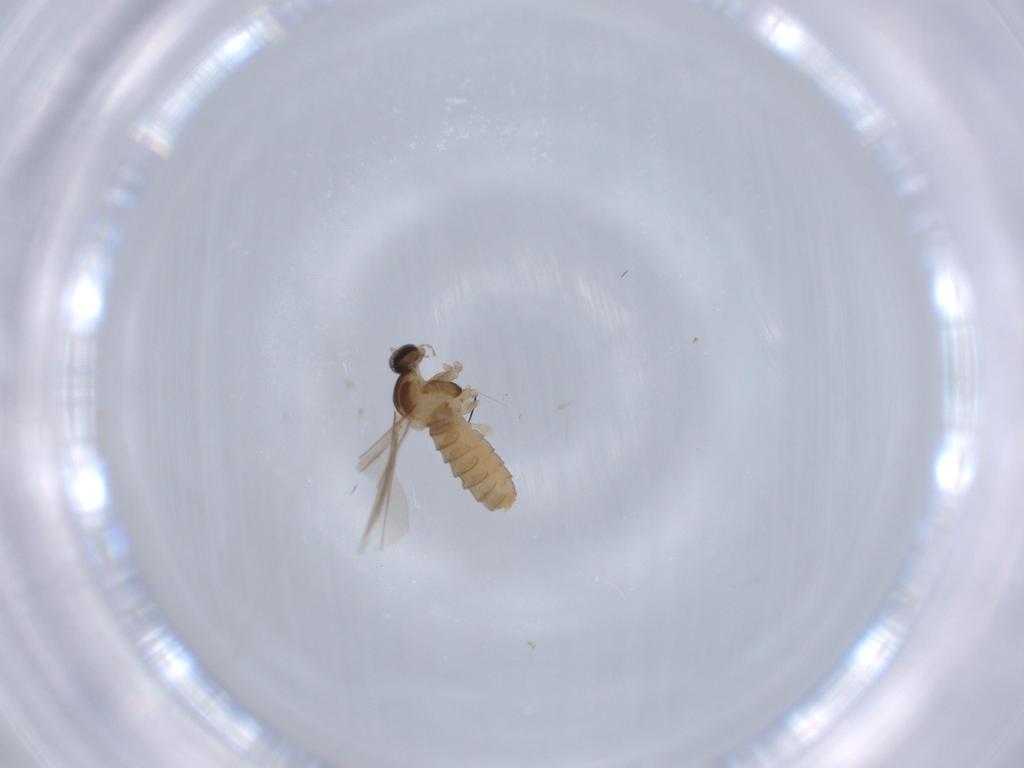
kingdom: Animalia
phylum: Arthropoda
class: Insecta
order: Diptera
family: Cecidomyiidae
